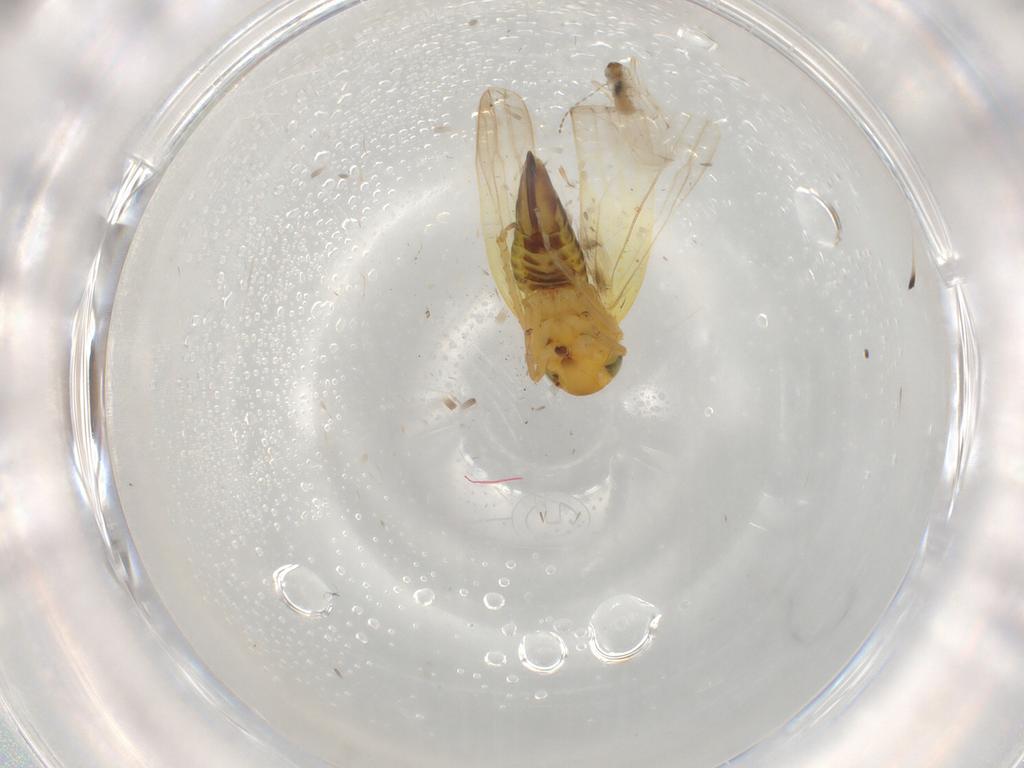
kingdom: Animalia
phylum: Arthropoda
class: Insecta
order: Hemiptera
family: Cicadellidae
